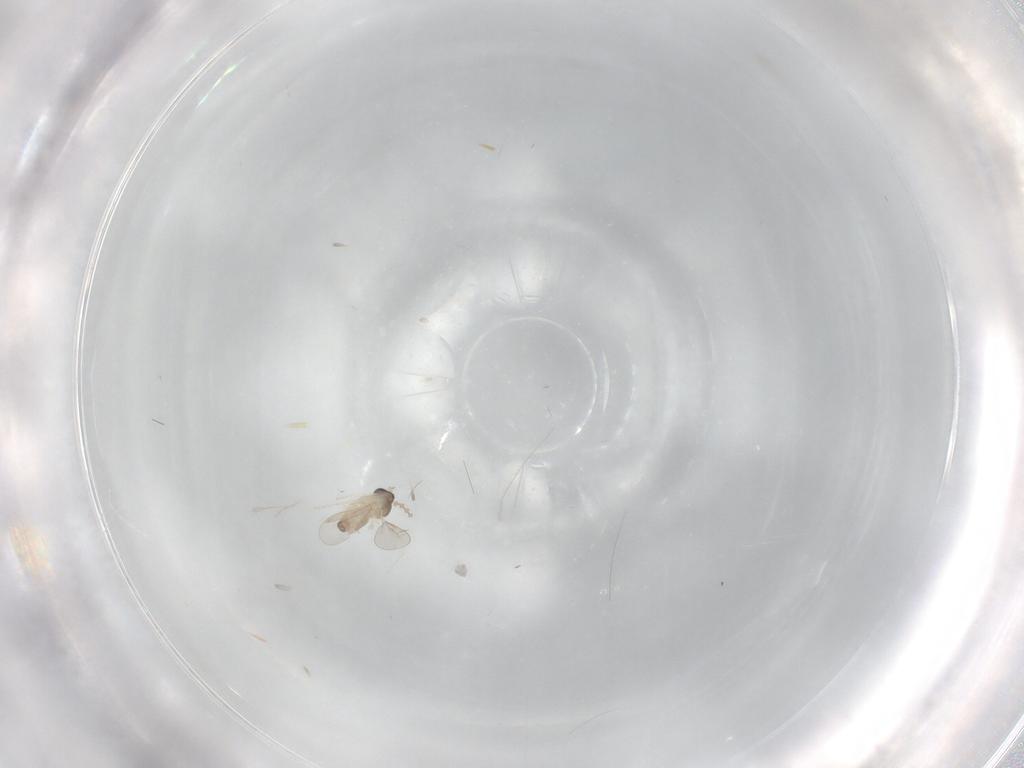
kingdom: Animalia
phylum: Arthropoda
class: Insecta
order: Diptera
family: Cecidomyiidae
